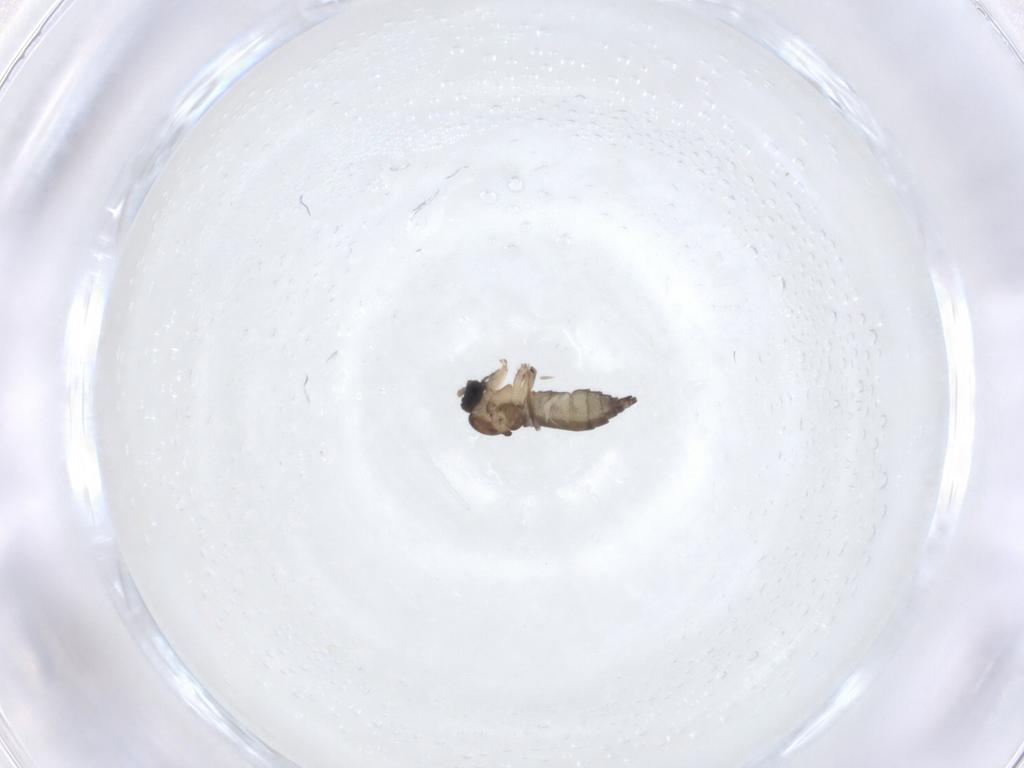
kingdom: Animalia
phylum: Arthropoda
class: Insecta
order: Diptera
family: Sciaridae
